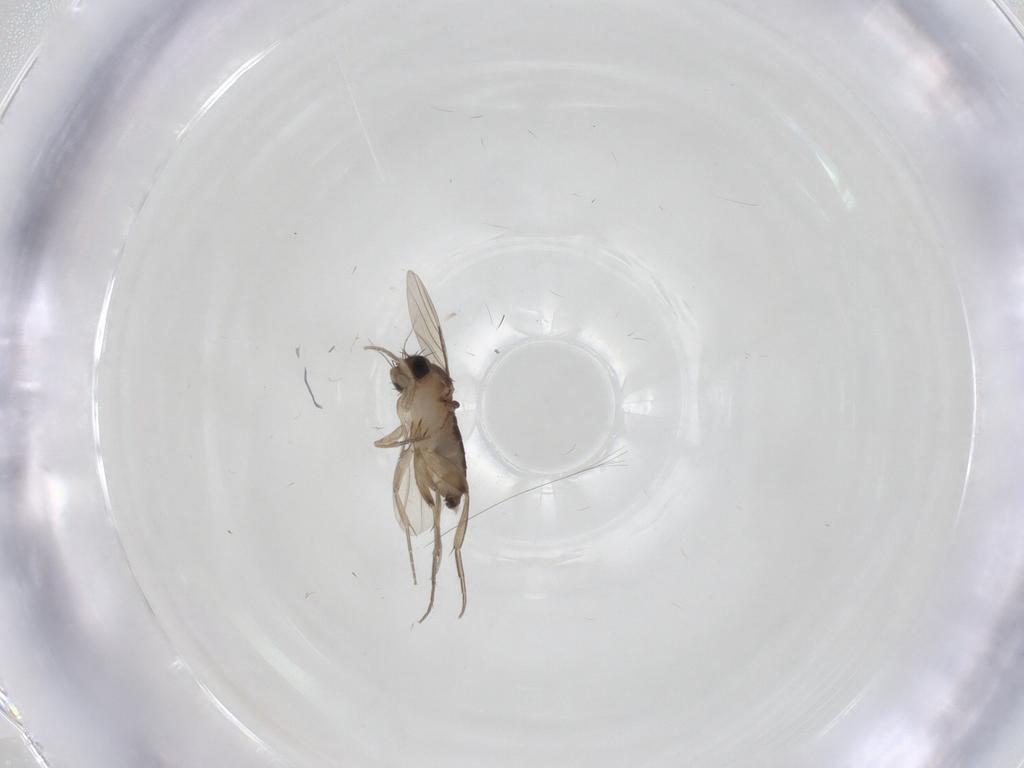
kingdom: Animalia
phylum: Arthropoda
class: Insecta
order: Diptera
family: Phoridae
